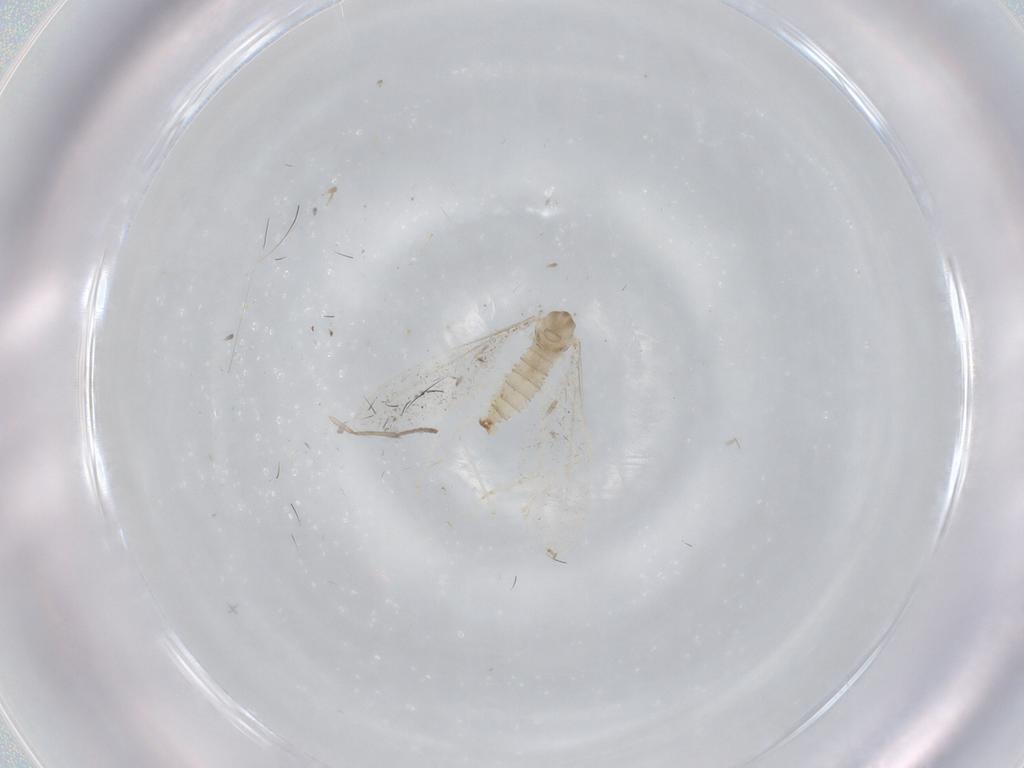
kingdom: Animalia
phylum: Arthropoda
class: Insecta
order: Diptera
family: Cecidomyiidae
